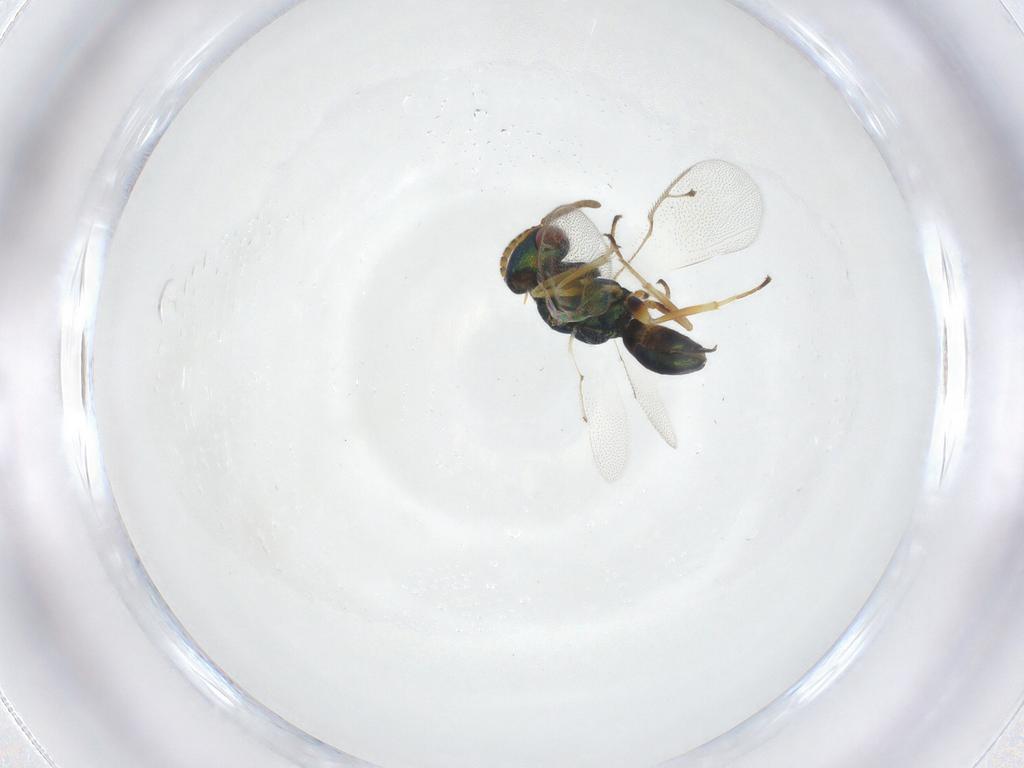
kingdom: Animalia
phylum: Arthropoda
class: Insecta
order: Hymenoptera
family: Pteromalidae
